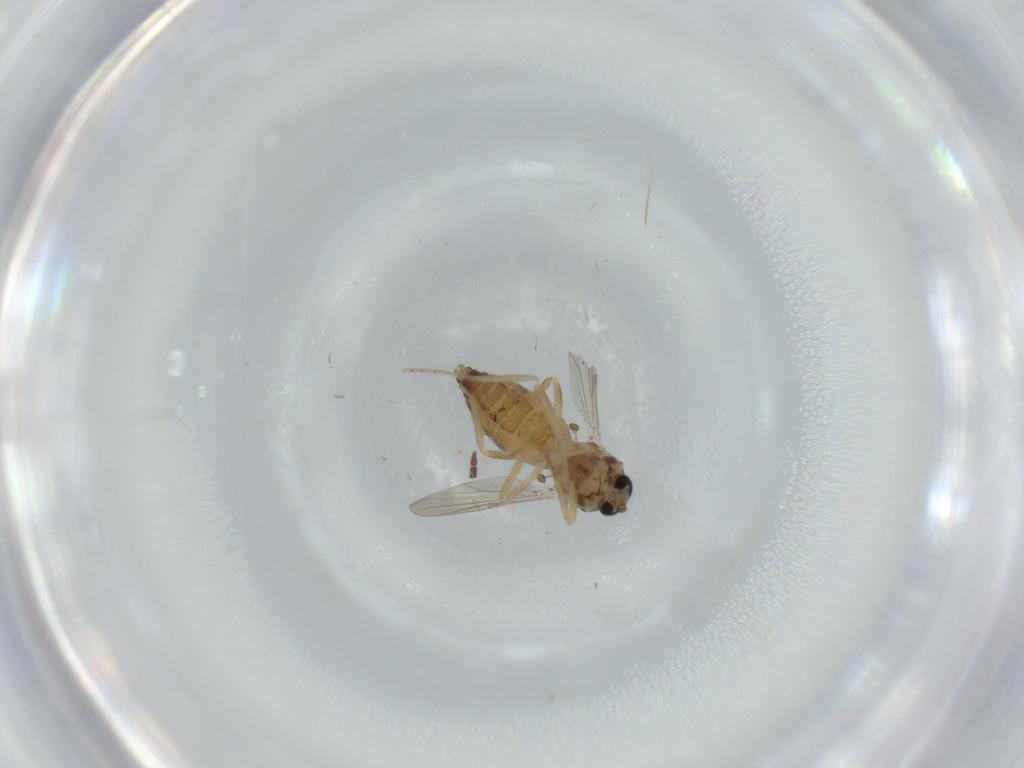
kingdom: Animalia
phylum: Arthropoda
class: Insecta
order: Diptera
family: Ceratopogonidae
